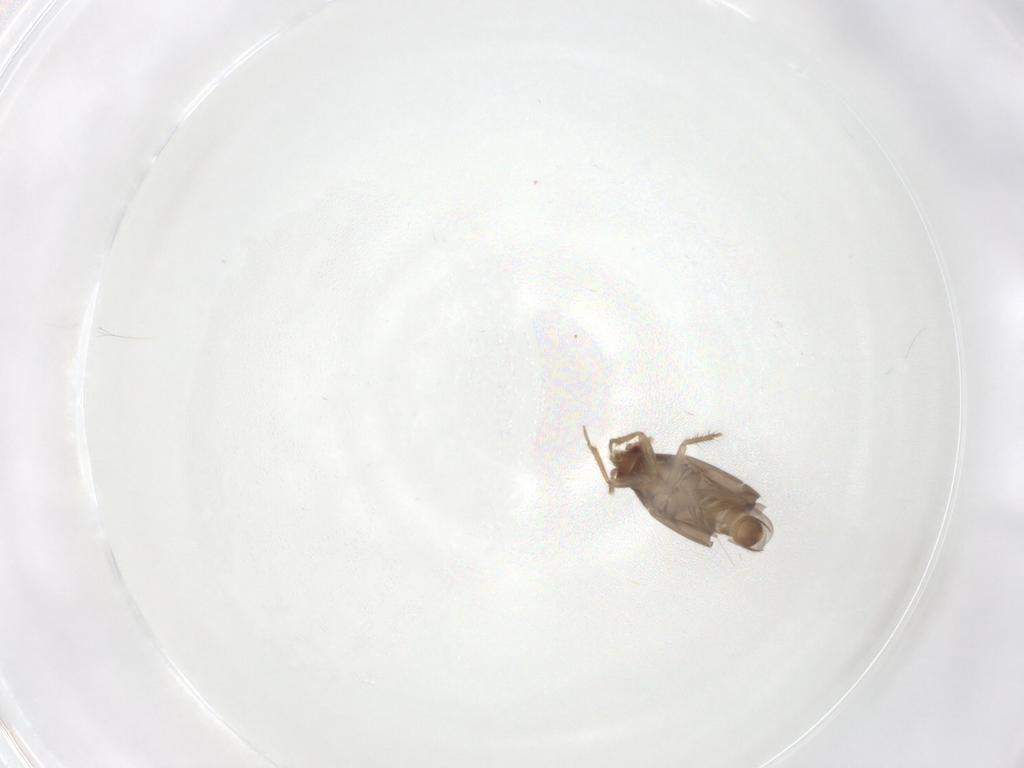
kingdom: Animalia
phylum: Arthropoda
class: Insecta
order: Hemiptera
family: Ceratocombidae
